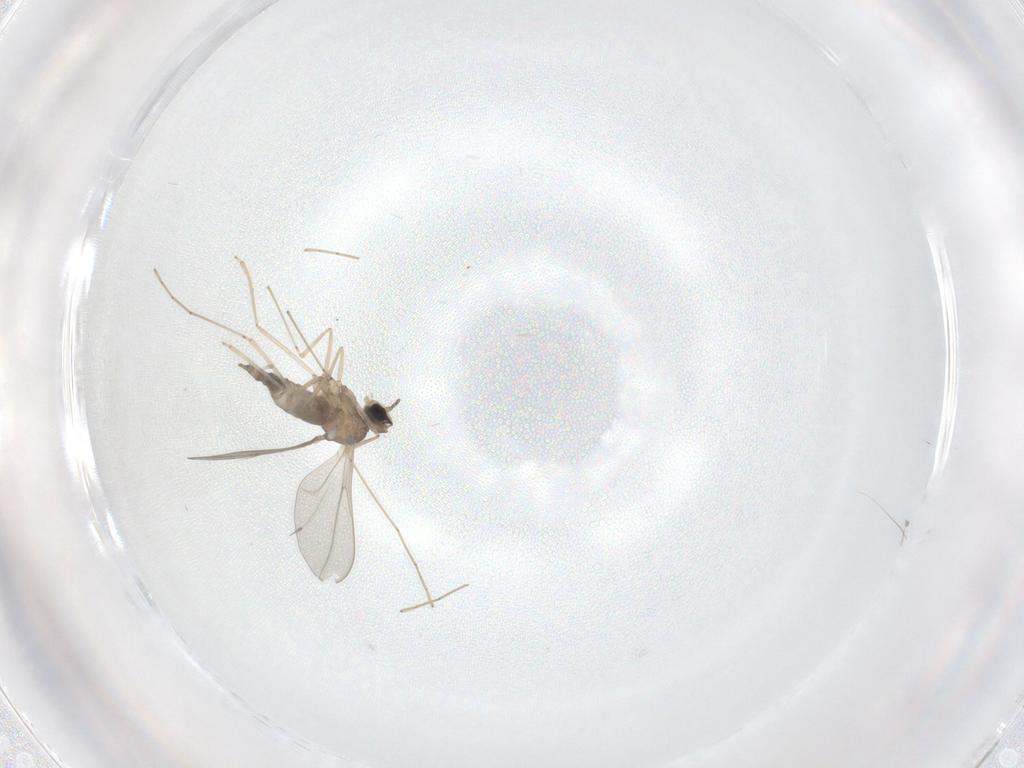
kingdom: Animalia
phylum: Arthropoda
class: Insecta
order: Diptera
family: Cecidomyiidae
